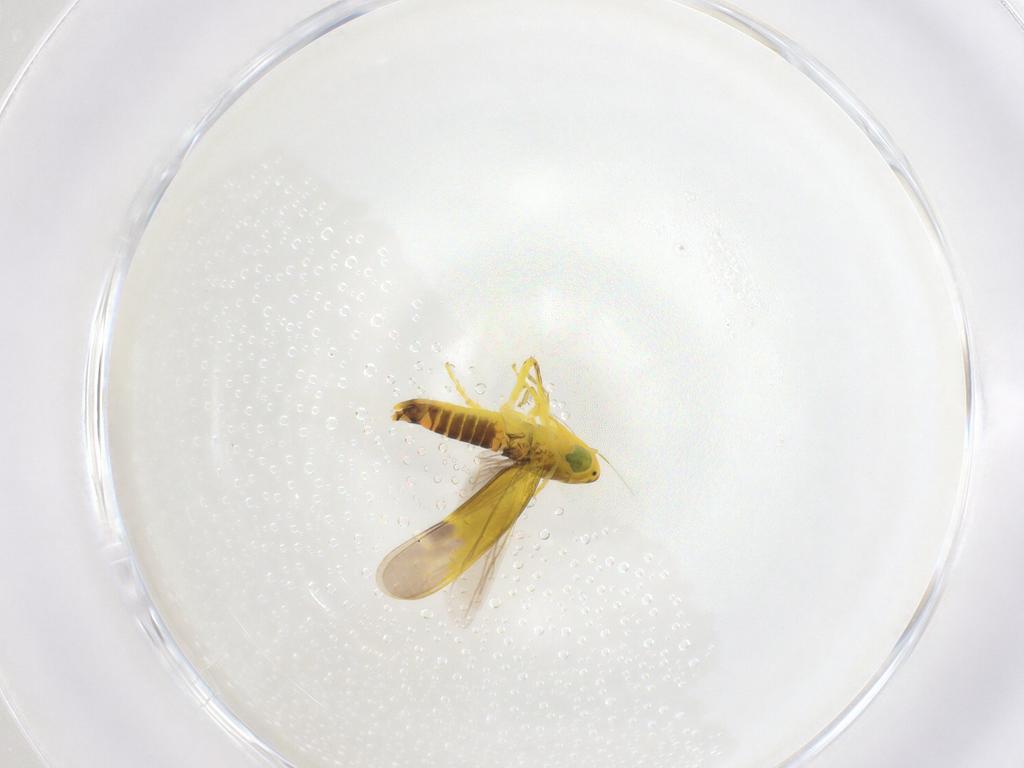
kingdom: Animalia
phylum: Arthropoda
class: Insecta
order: Hemiptera
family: Cicadellidae
